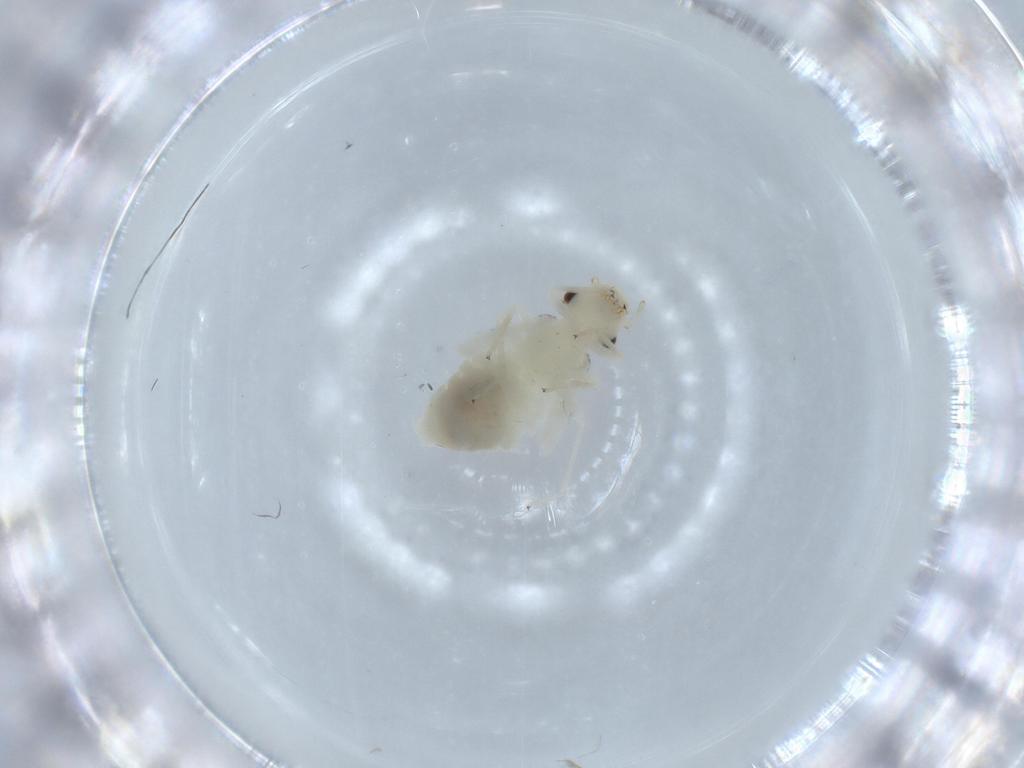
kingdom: Animalia
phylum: Arthropoda
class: Insecta
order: Psocodea
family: Caeciliusidae
